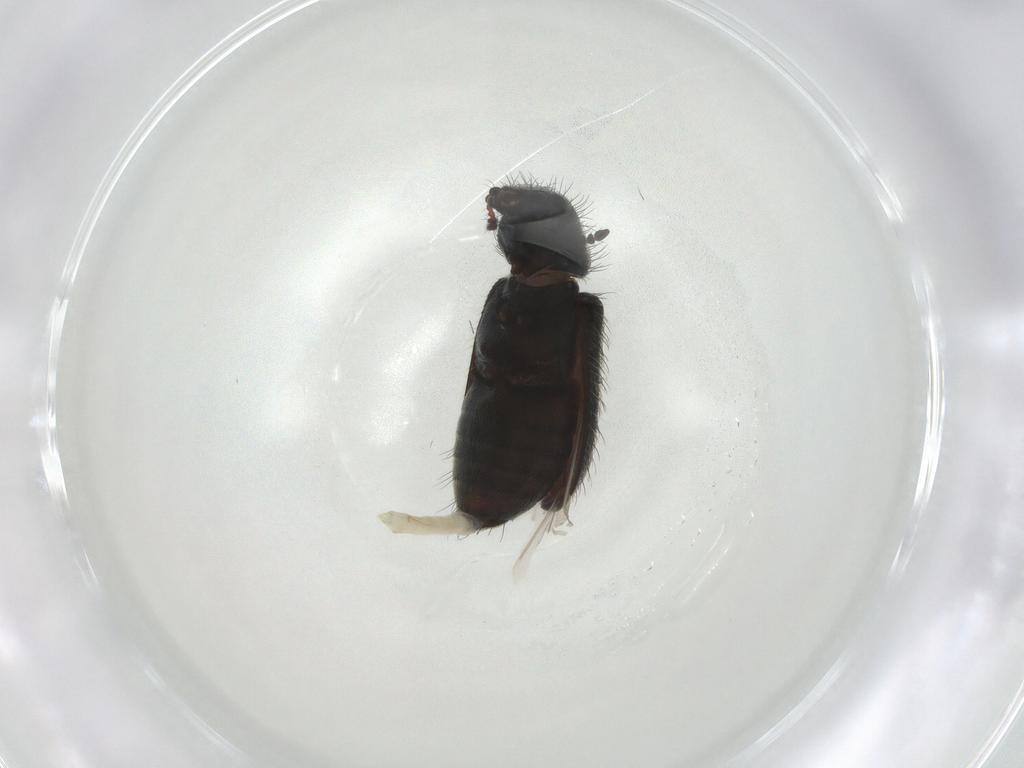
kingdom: Animalia
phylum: Arthropoda
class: Insecta
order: Coleoptera
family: Melyridae
